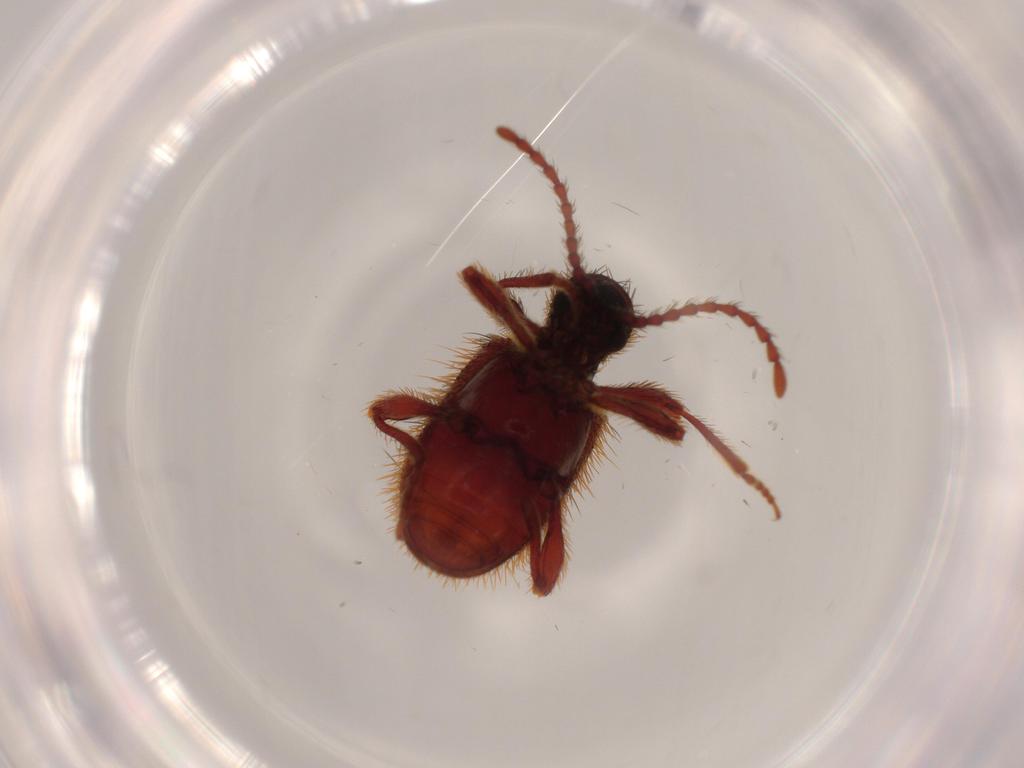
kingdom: Animalia
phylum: Arthropoda
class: Insecta
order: Coleoptera
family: Ptinidae
